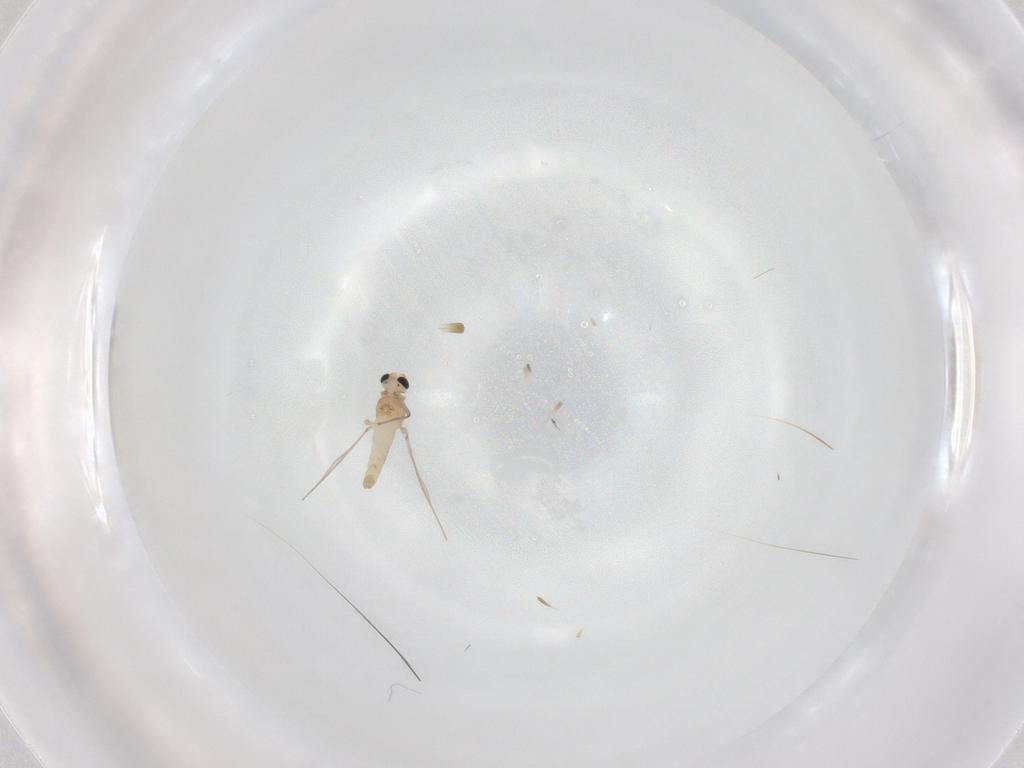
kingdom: Animalia
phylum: Arthropoda
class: Insecta
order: Diptera
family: Chironomidae
